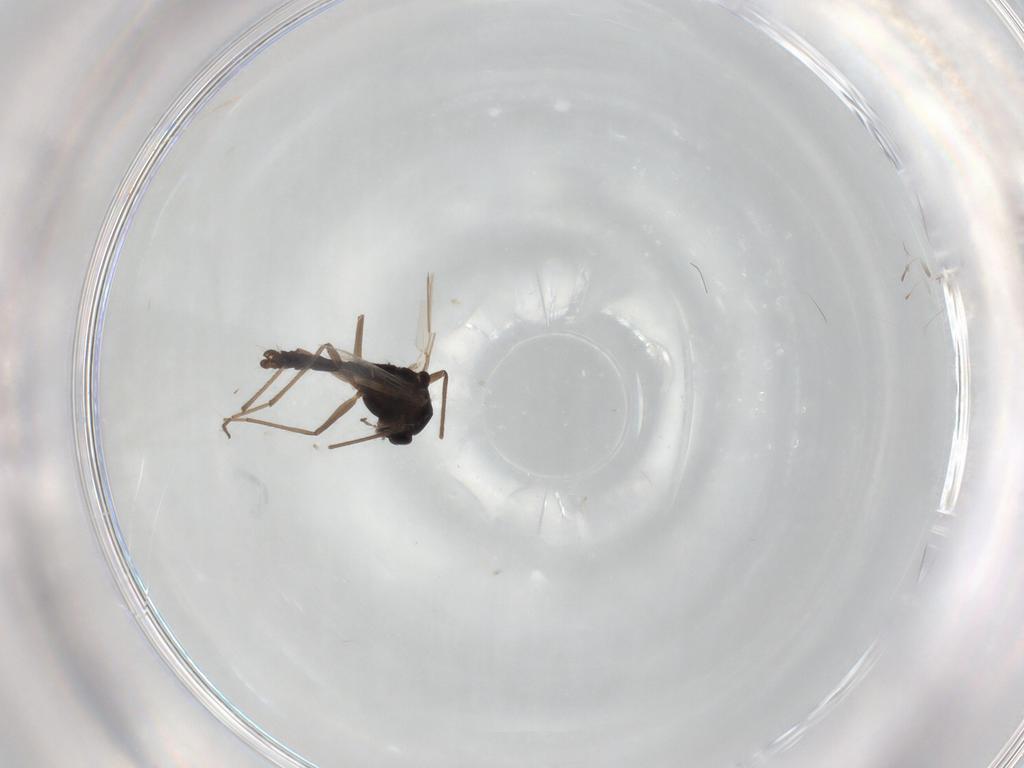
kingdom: Animalia
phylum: Arthropoda
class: Insecta
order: Diptera
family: Chironomidae
